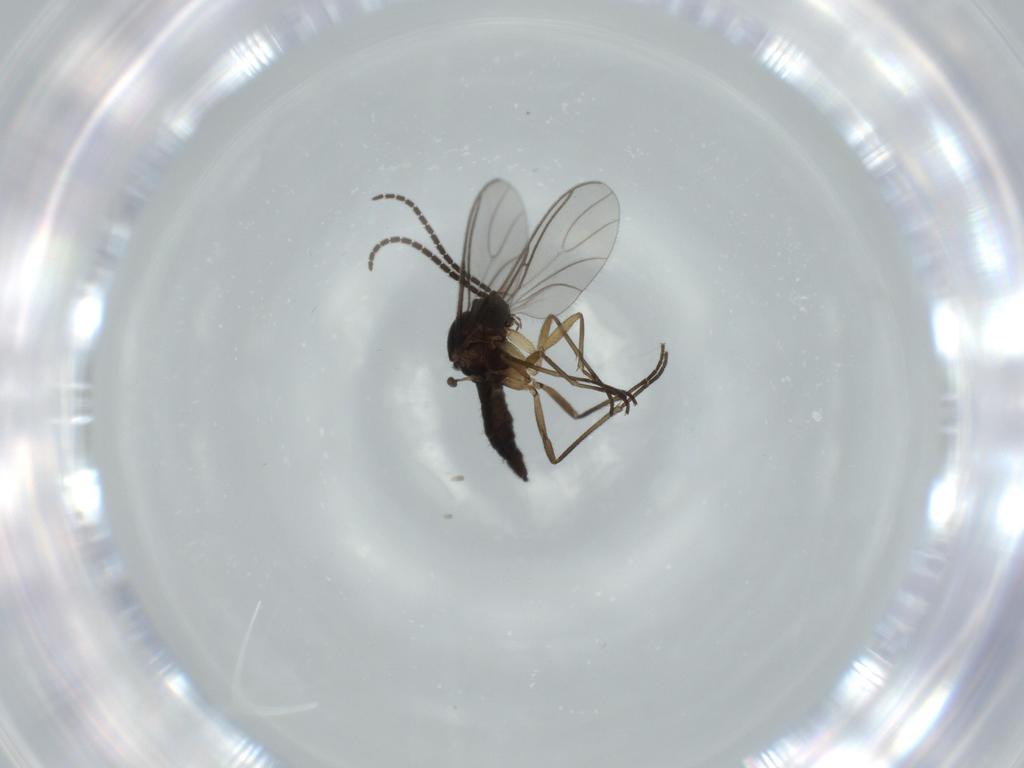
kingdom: Animalia
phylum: Arthropoda
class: Insecta
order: Diptera
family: Sciaridae
